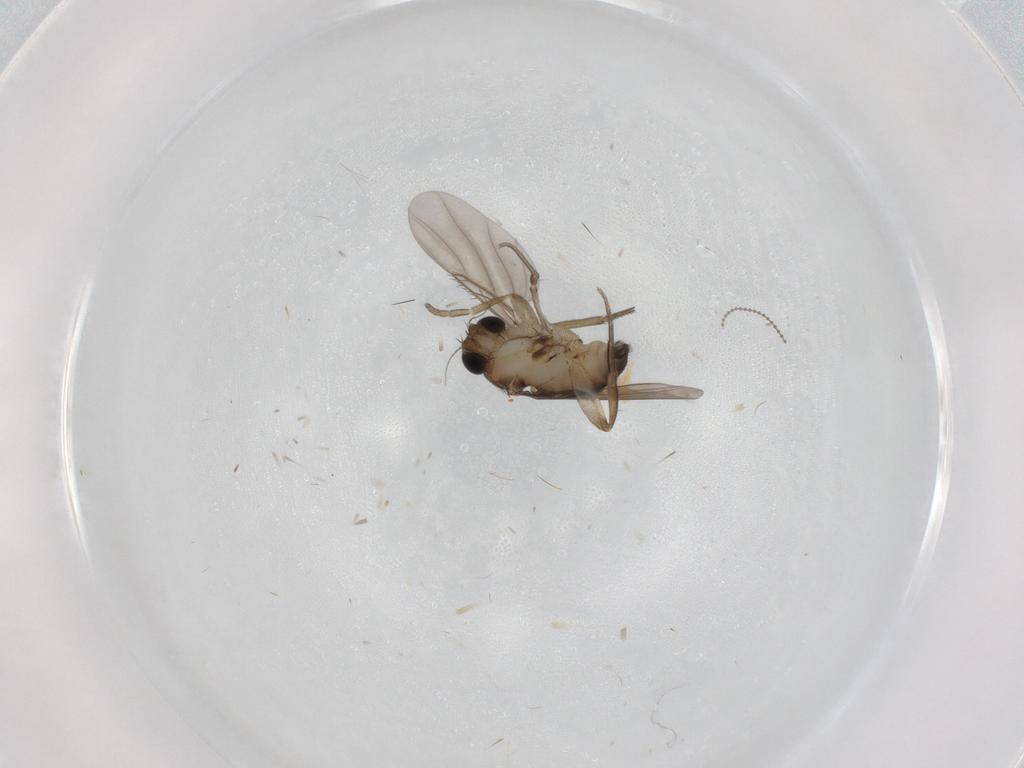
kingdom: Animalia
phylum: Arthropoda
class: Insecta
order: Diptera
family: Phoridae
